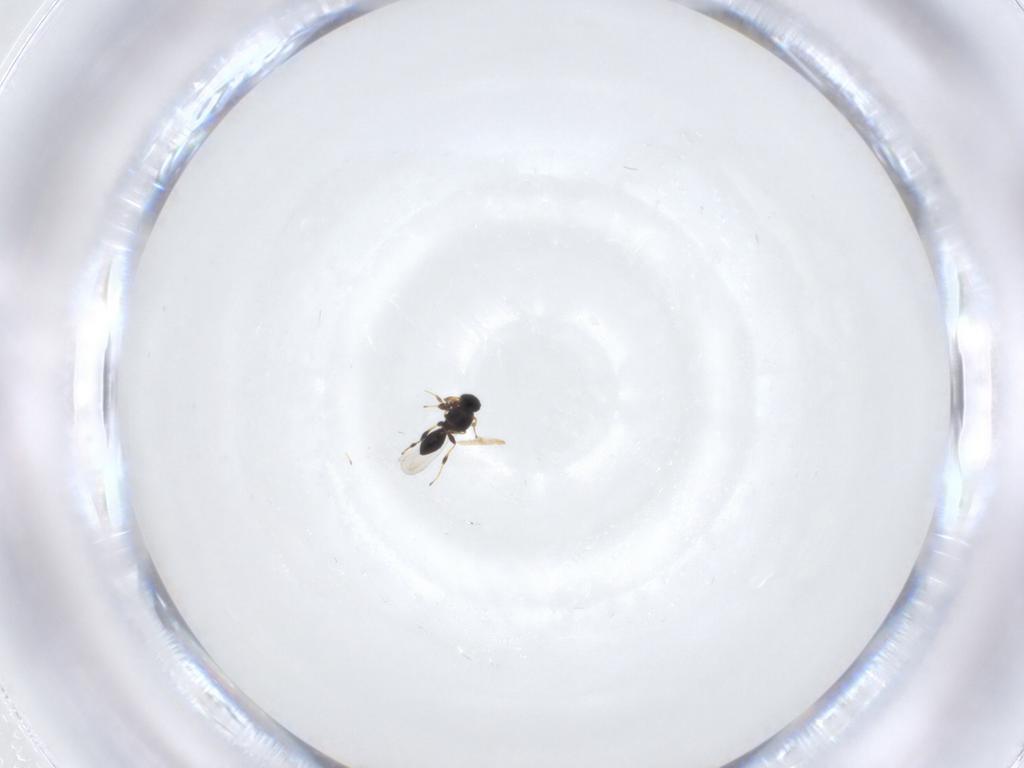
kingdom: Animalia
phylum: Arthropoda
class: Insecta
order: Hymenoptera
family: Platygastridae
